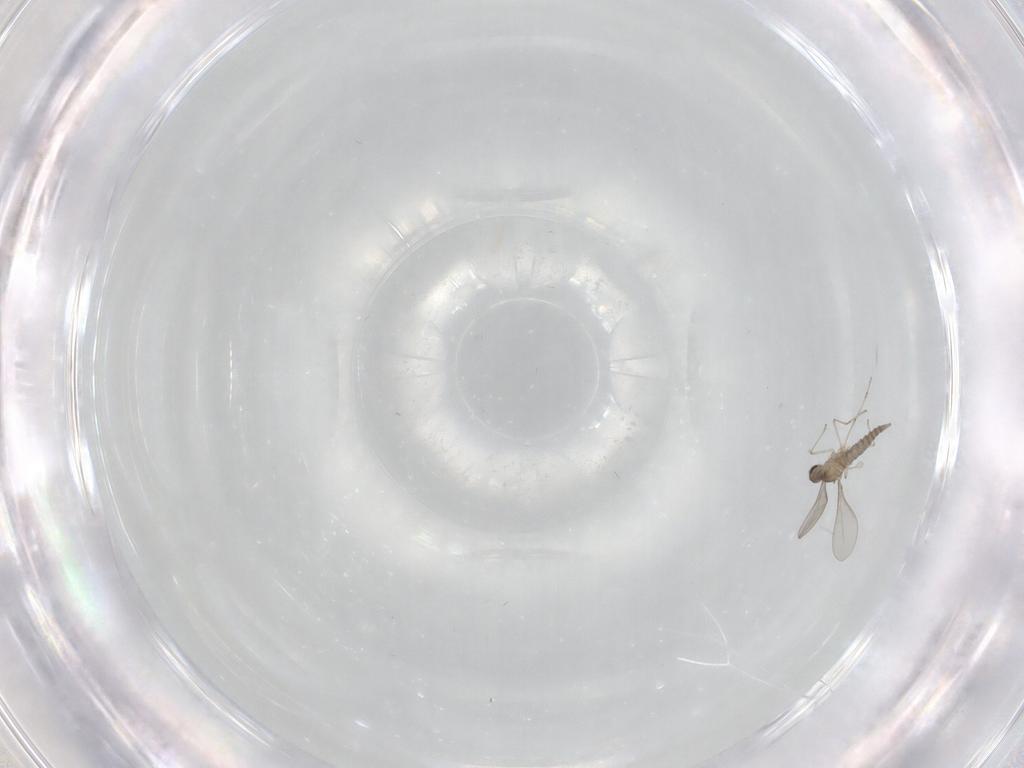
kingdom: Animalia
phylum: Arthropoda
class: Insecta
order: Diptera
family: Cecidomyiidae
